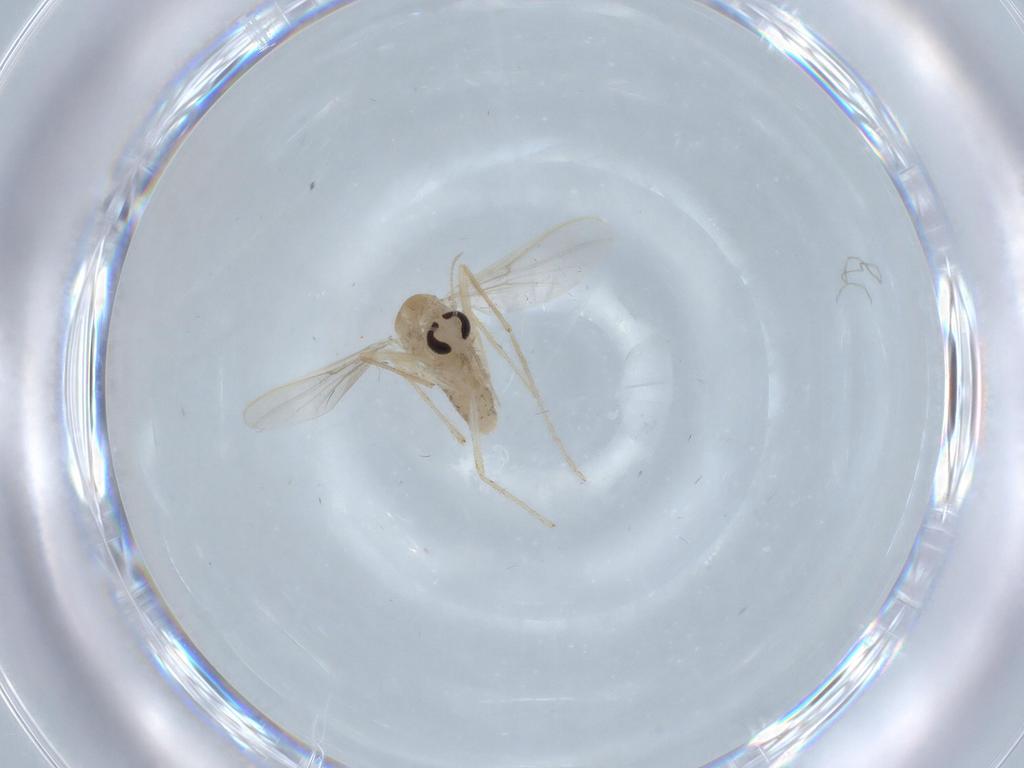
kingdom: Animalia
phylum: Arthropoda
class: Insecta
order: Diptera
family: Chironomidae
